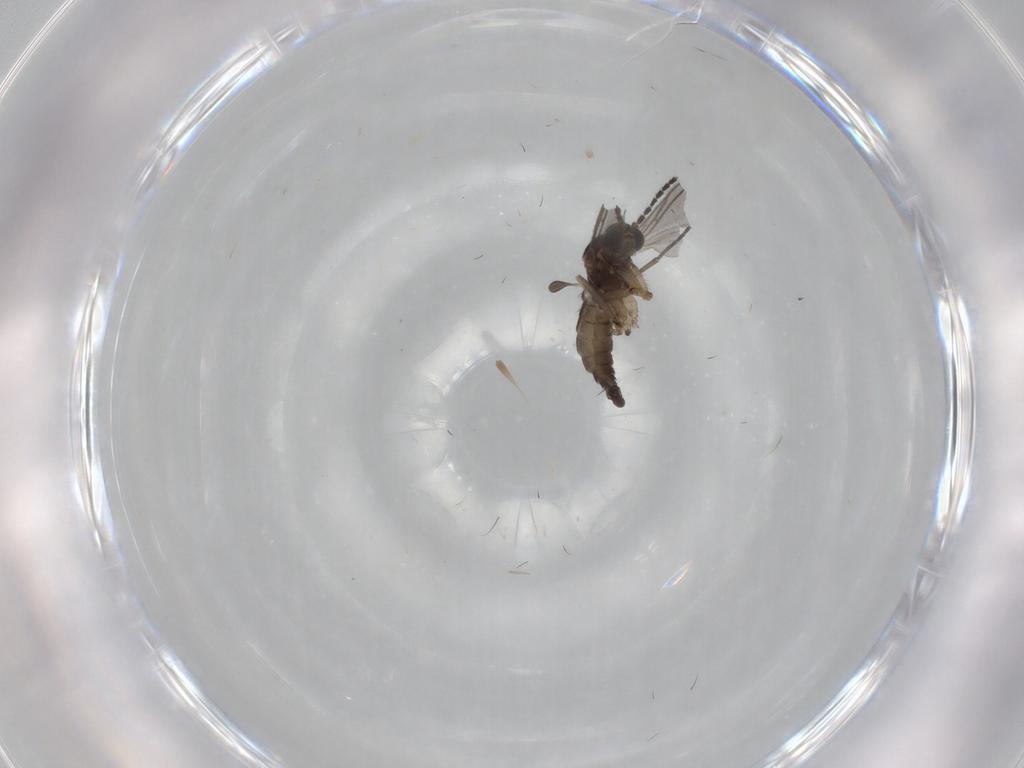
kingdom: Animalia
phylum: Arthropoda
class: Insecta
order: Diptera
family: Sciaridae
